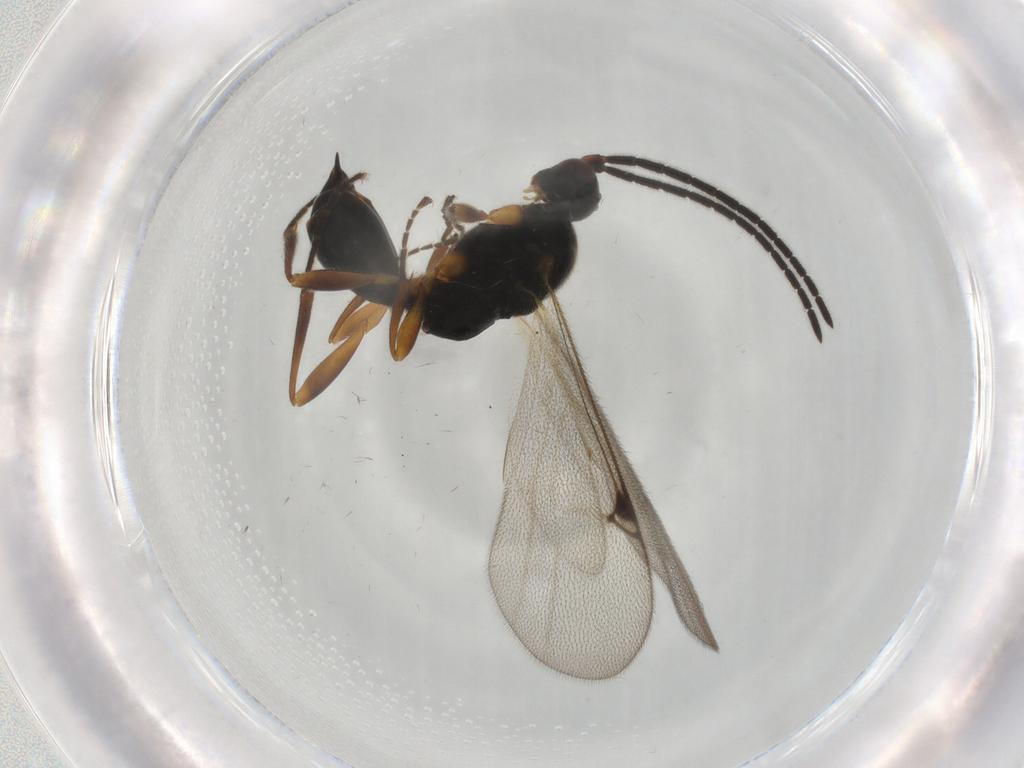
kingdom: Animalia
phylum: Arthropoda
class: Insecta
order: Hymenoptera
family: Proctotrupidae
